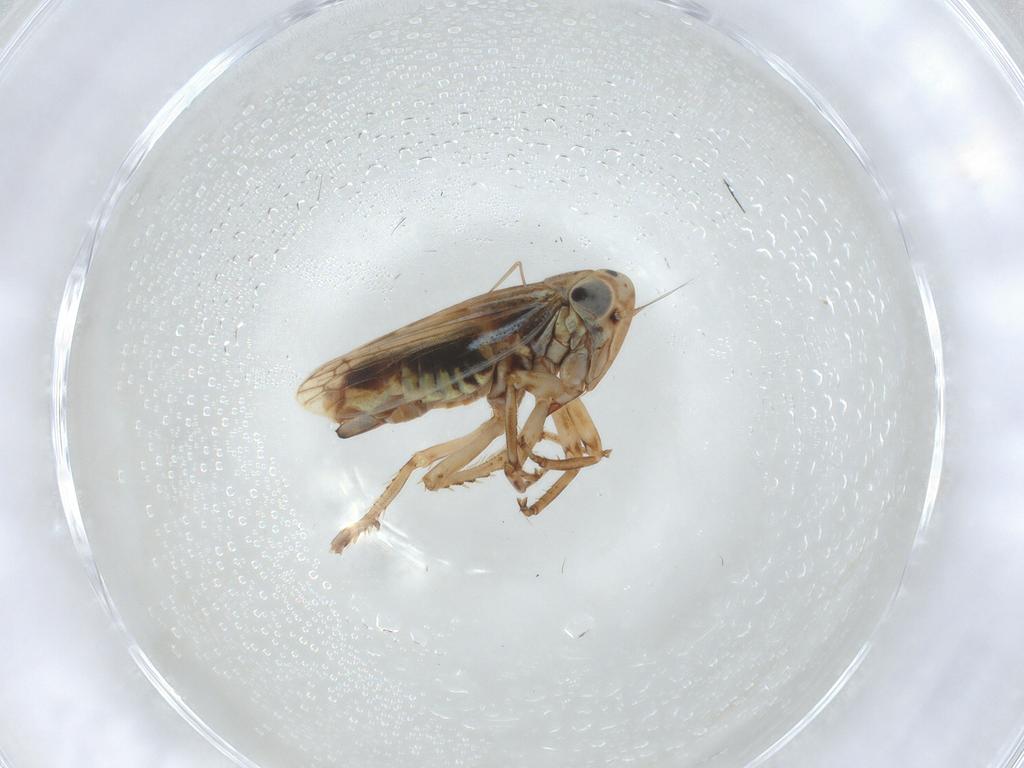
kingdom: Animalia
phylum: Arthropoda
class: Insecta
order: Hemiptera
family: Cicadellidae
